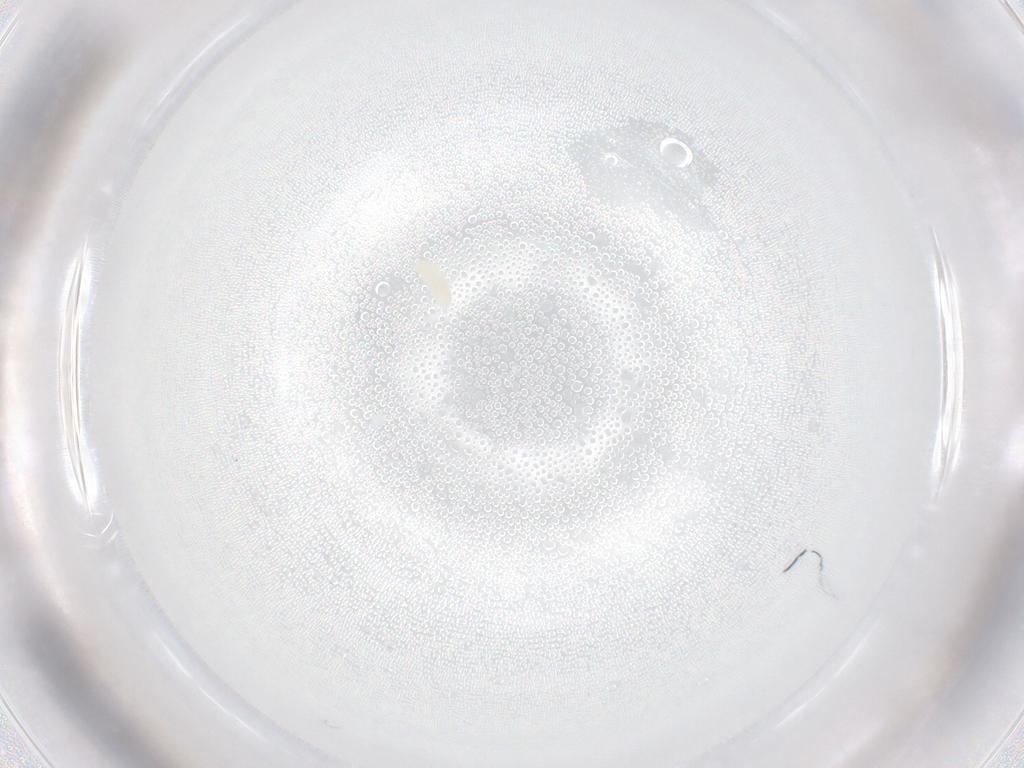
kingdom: Animalia
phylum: Arthropoda
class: Arachnida
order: Trombidiformes
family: Eupodidae
